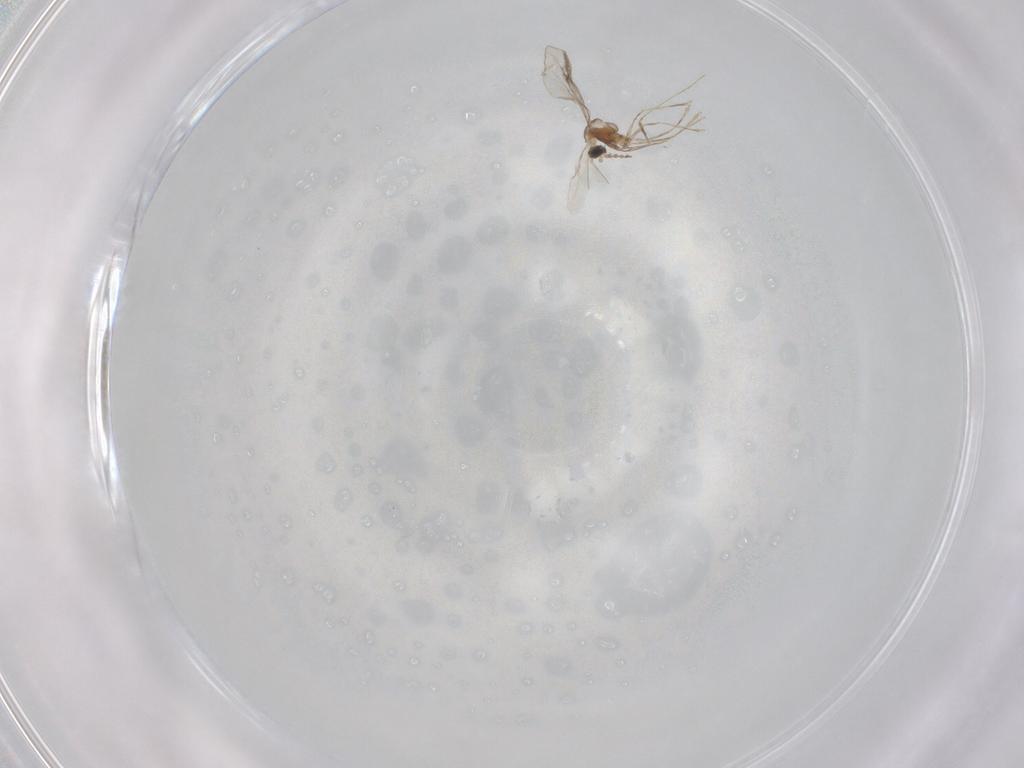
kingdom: Animalia
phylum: Arthropoda
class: Insecta
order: Diptera
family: Cecidomyiidae
